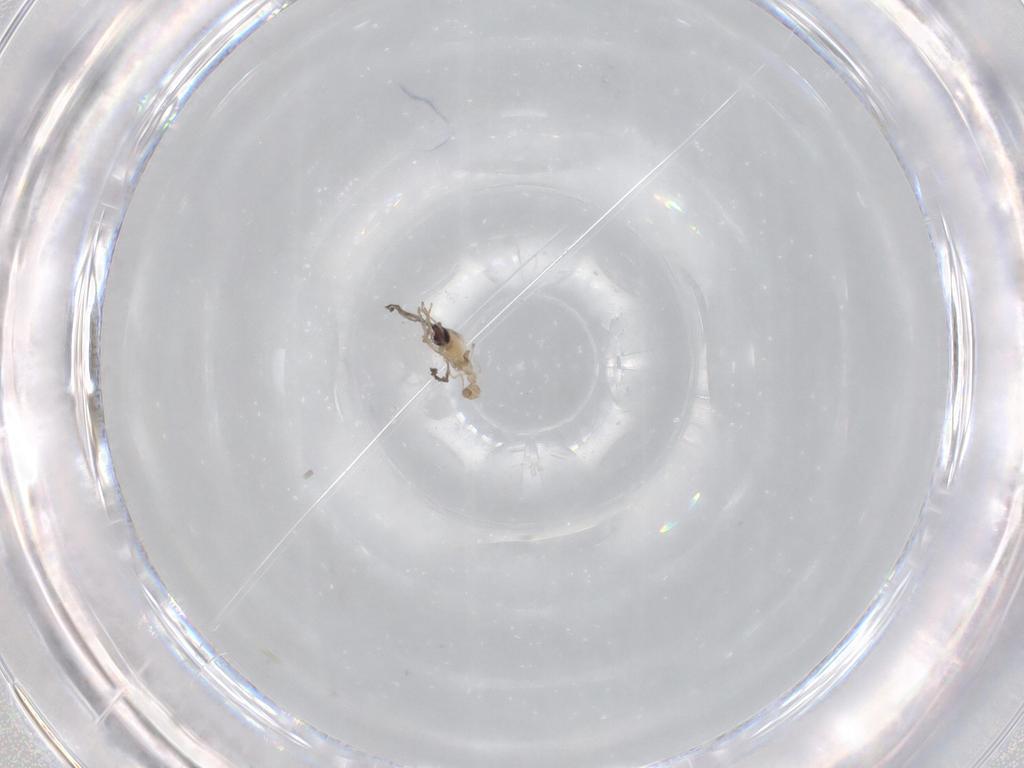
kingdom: Animalia
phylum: Arthropoda
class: Insecta
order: Diptera
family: Cecidomyiidae
